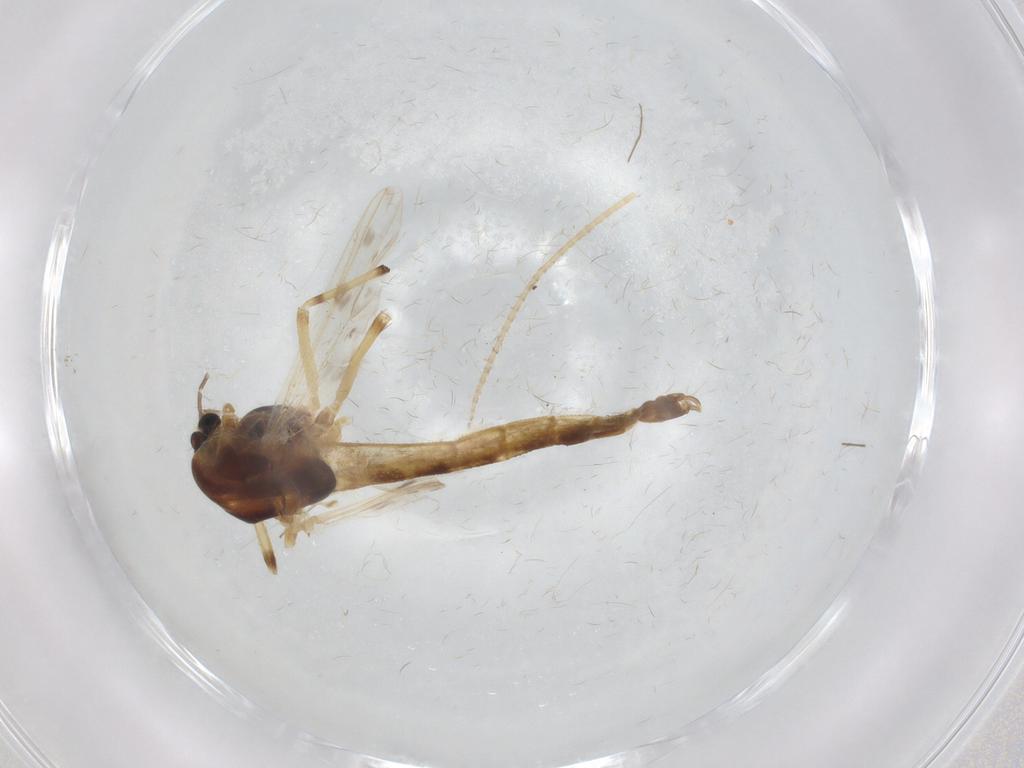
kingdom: Animalia
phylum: Arthropoda
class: Insecta
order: Diptera
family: Chironomidae
